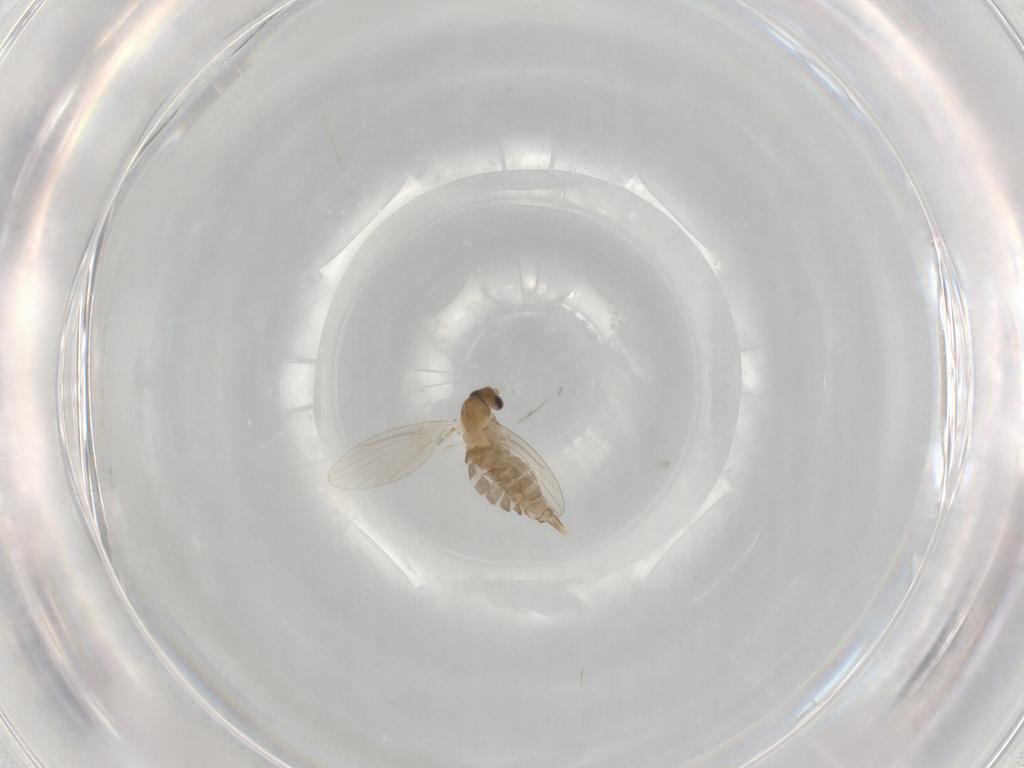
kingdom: Animalia
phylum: Arthropoda
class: Insecta
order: Diptera
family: Psychodidae
